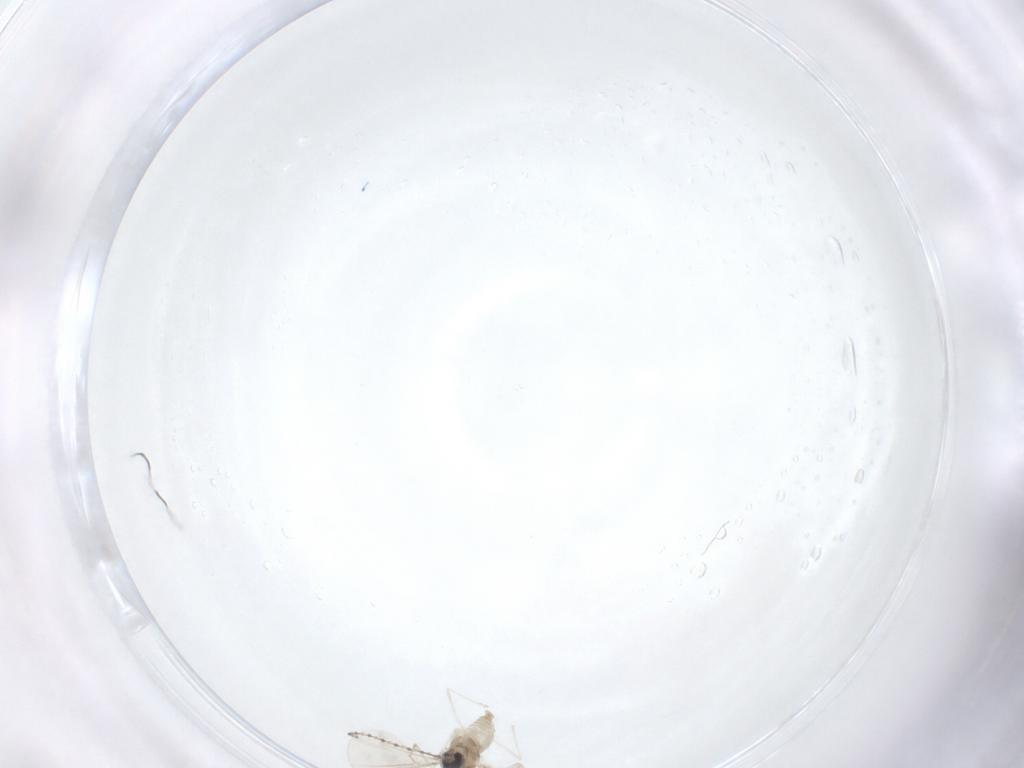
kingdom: Animalia
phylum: Arthropoda
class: Insecta
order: Diptera
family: Cecidomyiidae
